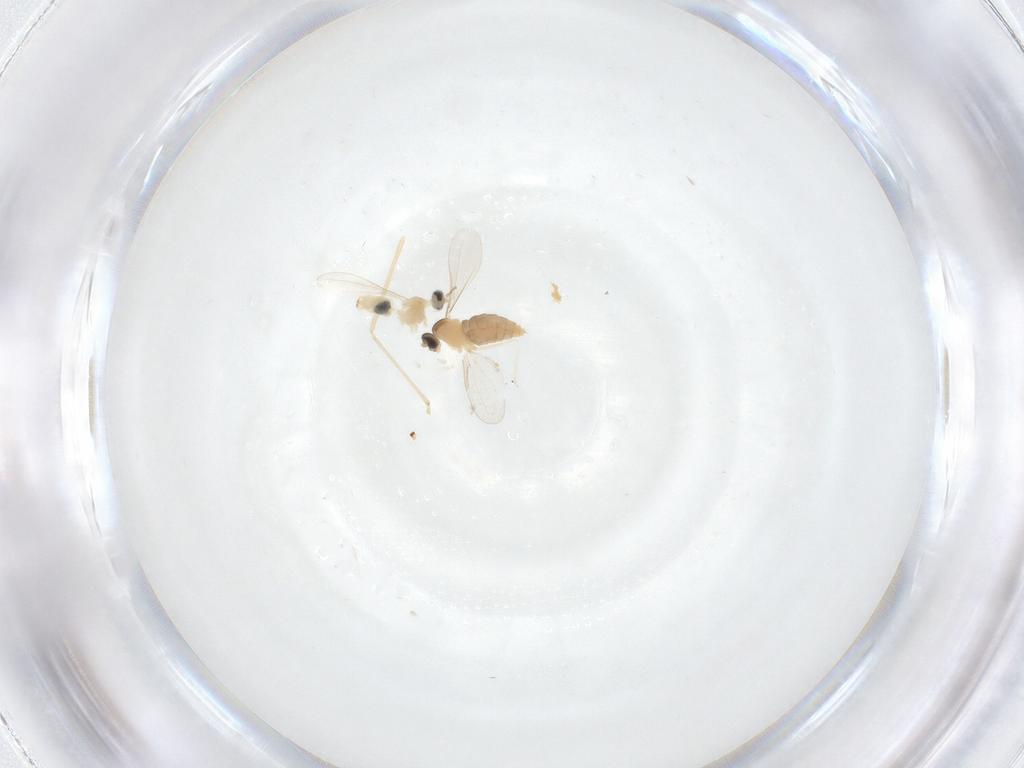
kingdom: Animalia
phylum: Arthropoda
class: Insecta
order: Diptera
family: Cecidomyiidae
